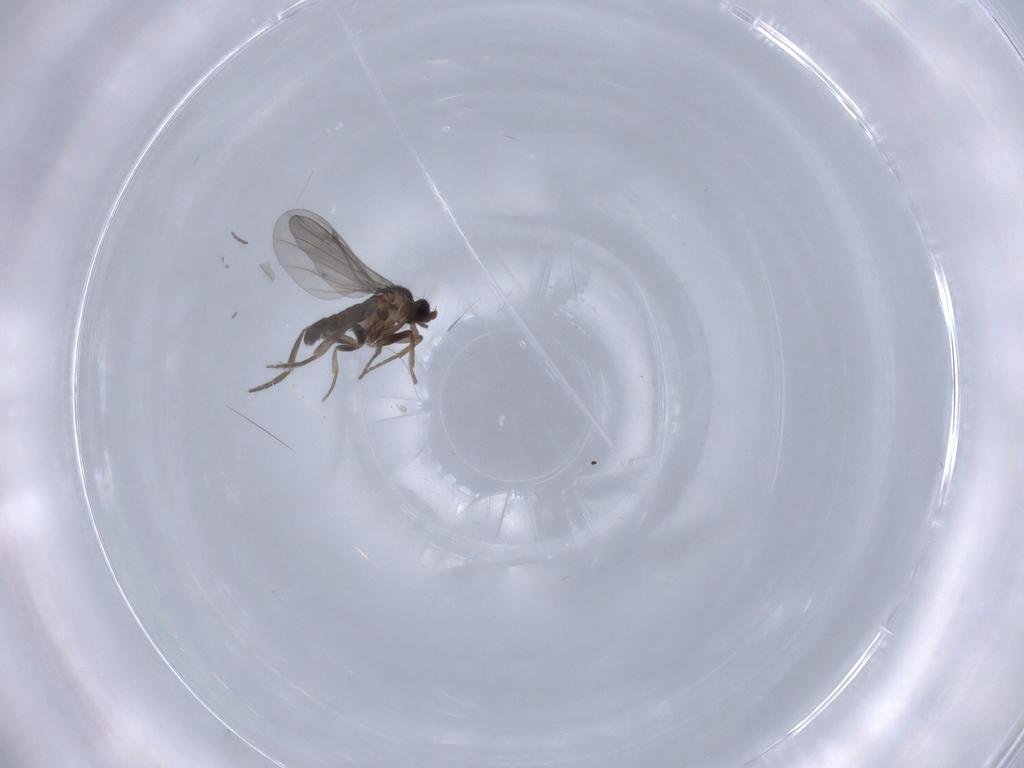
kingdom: Animalia
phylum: Arthropoda
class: Insecta
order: Diptera
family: Chironomidae
